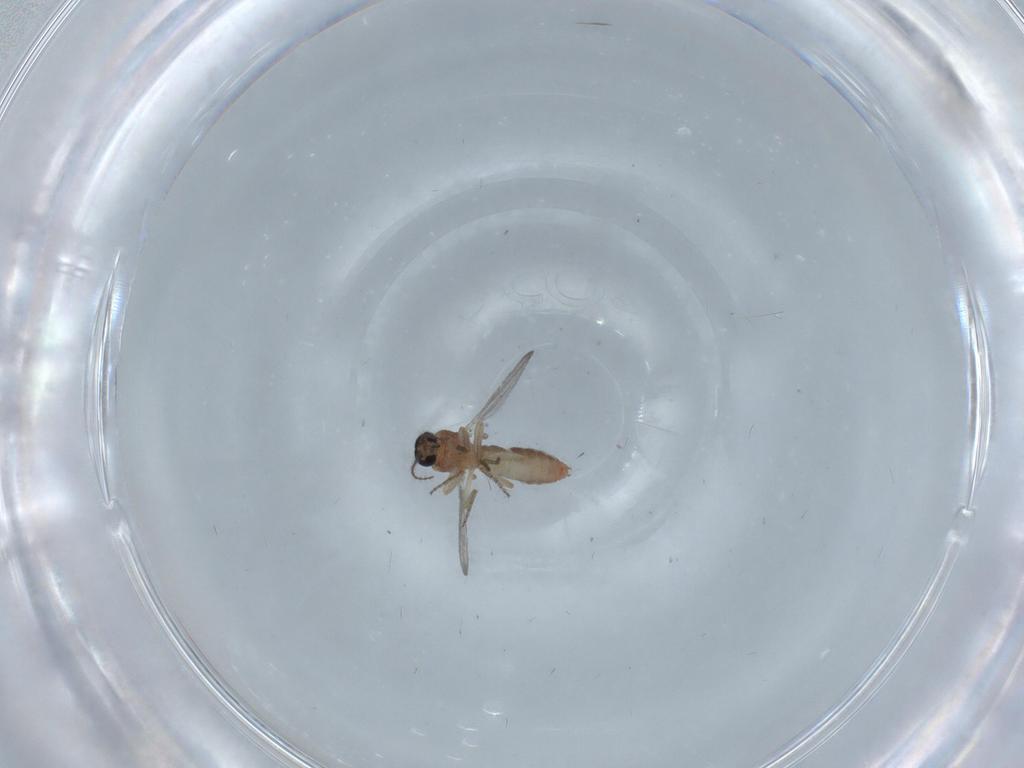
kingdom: Animalia
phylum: Arthropoda
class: Insecta
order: Diptera
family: Ceratopogonidae
